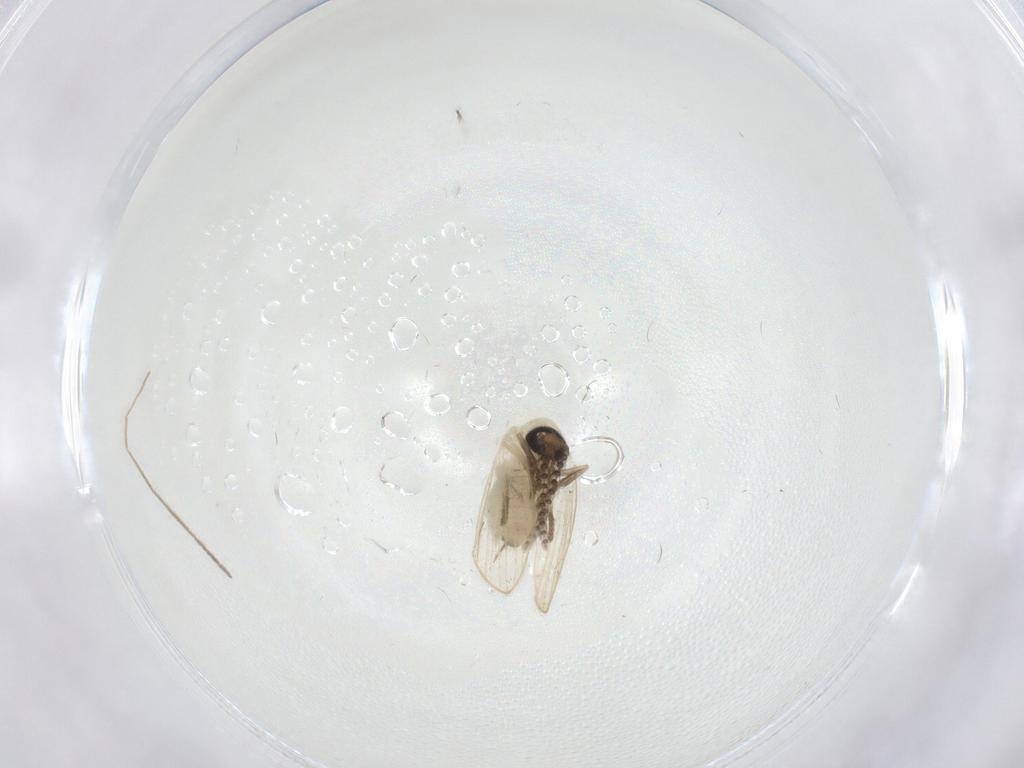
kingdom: Animalia
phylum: Arthropoda
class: Insecta
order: Diptera
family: Psychodidae
